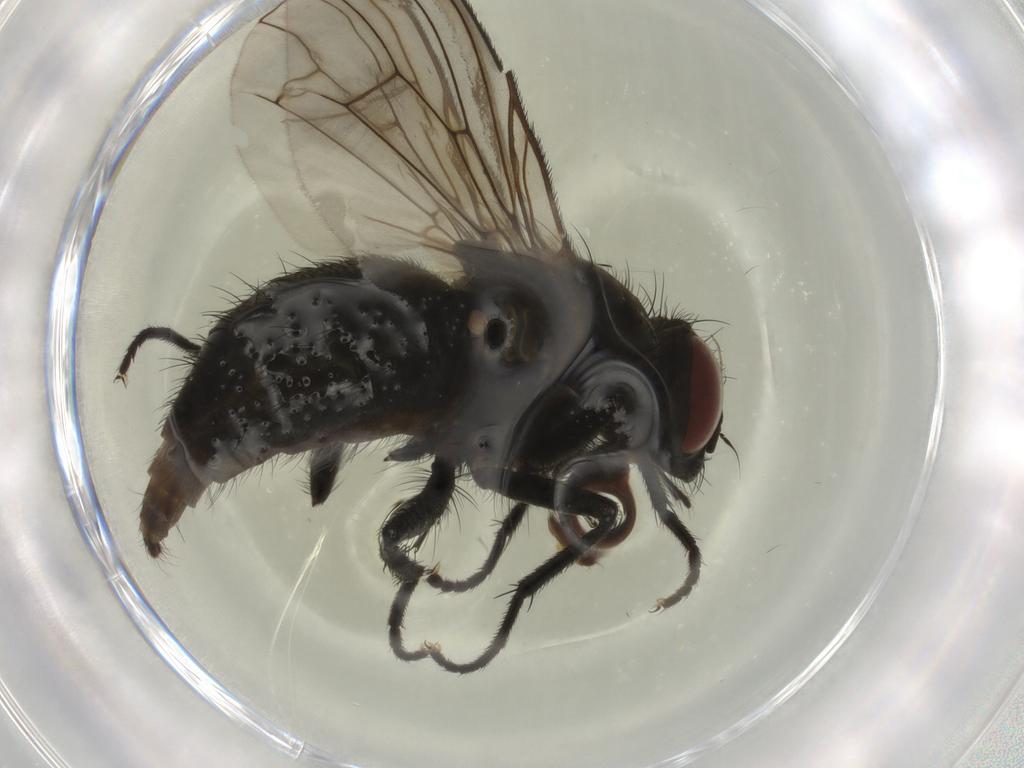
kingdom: Animalia
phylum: Arthropoda
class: Insecta
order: Diptera
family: Muscidae
